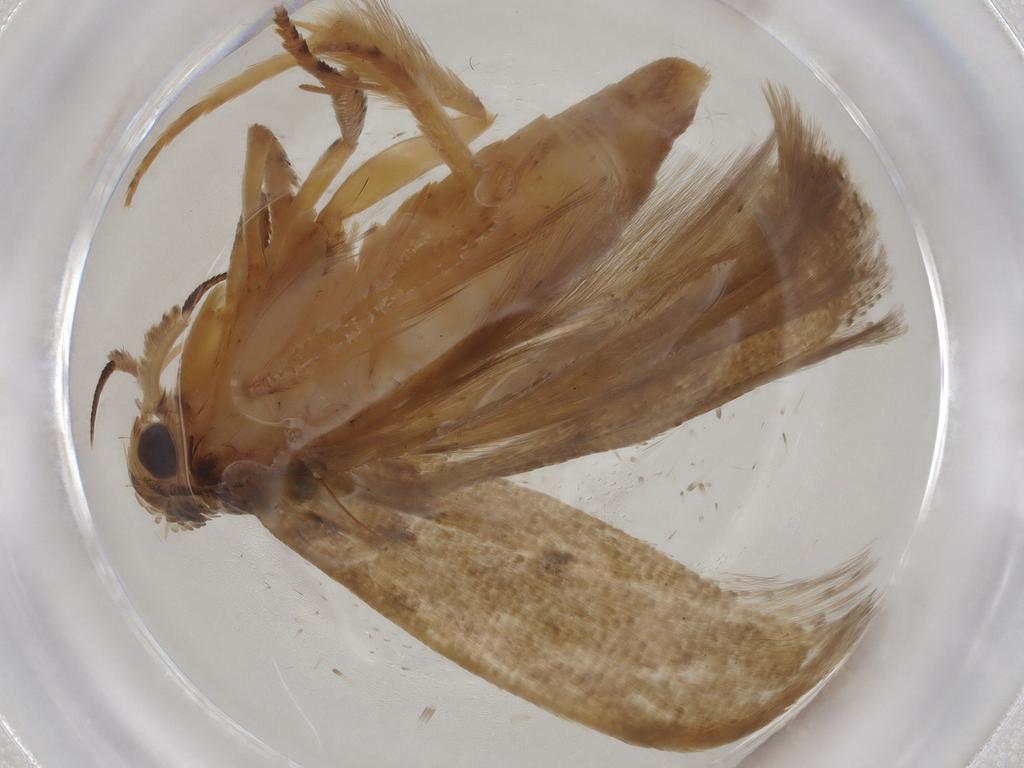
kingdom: Animalia
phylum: Arthropoda
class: Insecta
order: Lepidoptera
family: Gelechiidae
